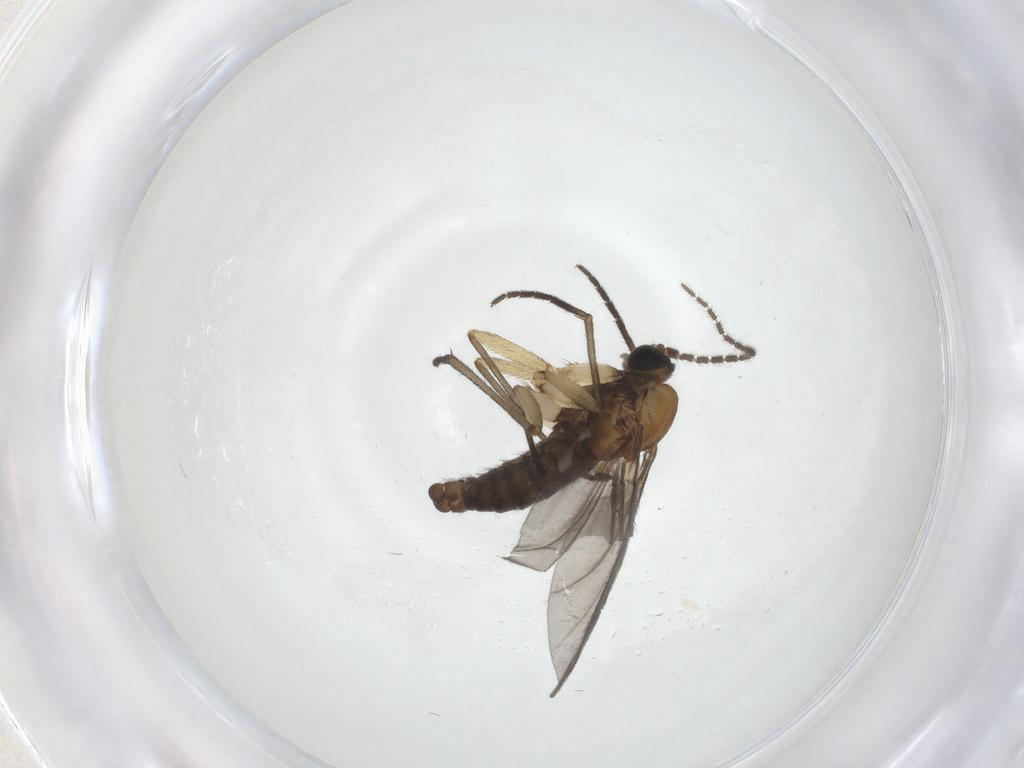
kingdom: Animalia
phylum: Arthropoda
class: Insecta
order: Diptera
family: Sciaridae
